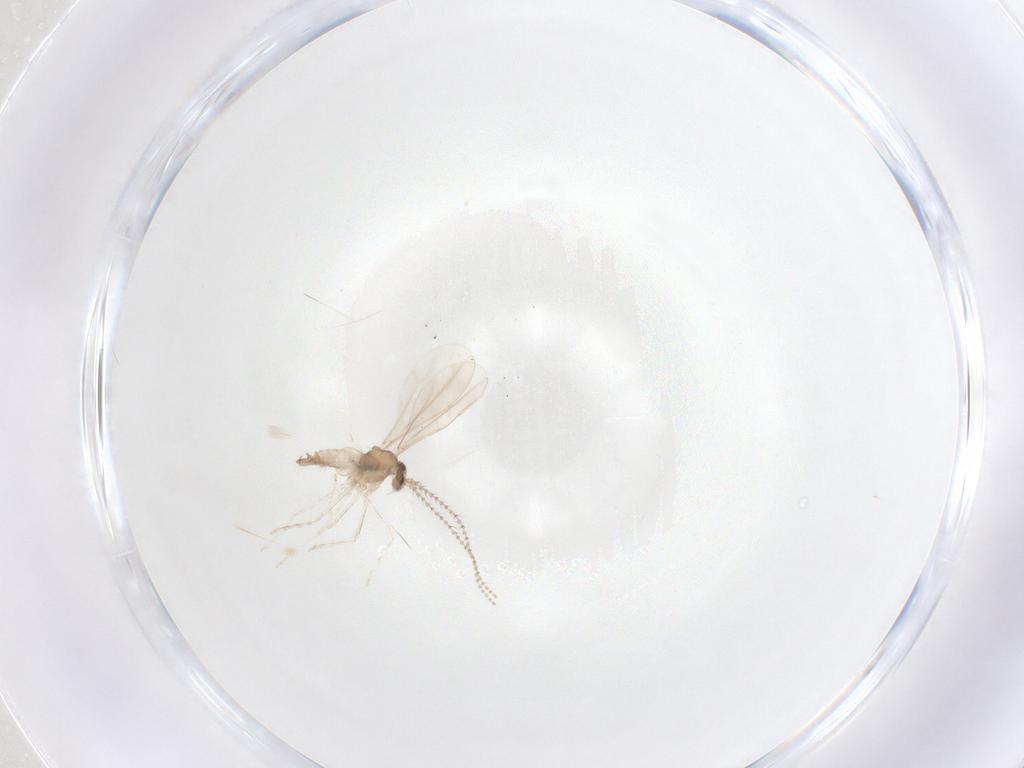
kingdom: Animalia
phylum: Arthropoda
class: Insecta
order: Diptera
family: Cecidomyiidae
